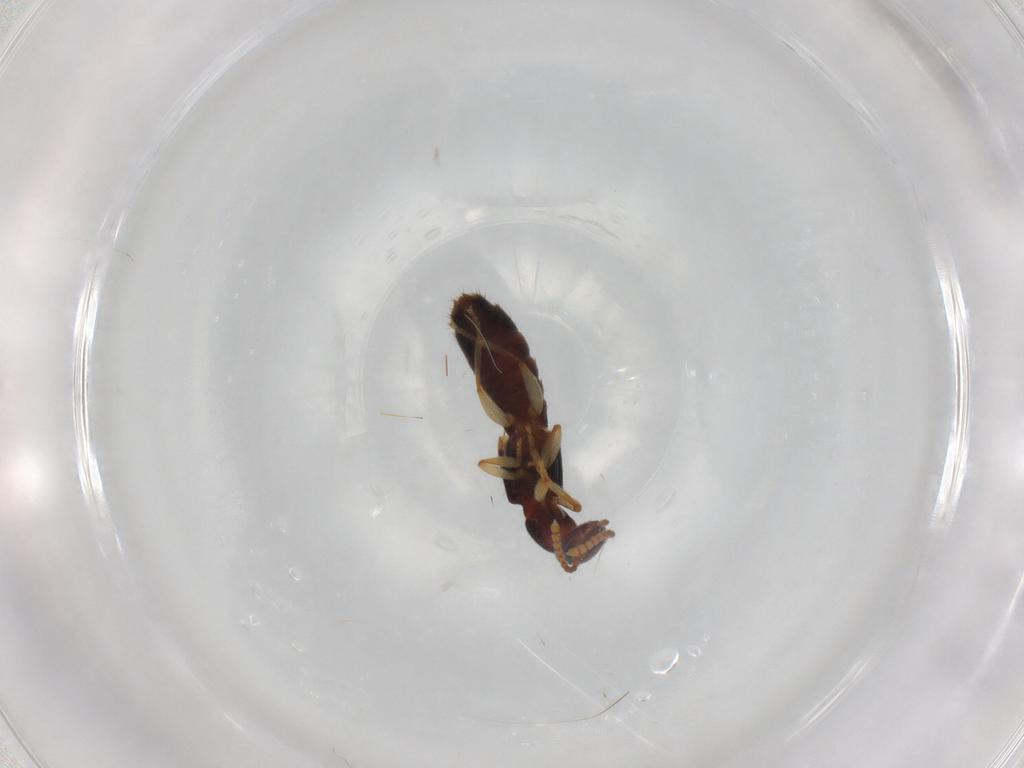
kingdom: Animalia
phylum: Arthropoda
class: Insecta
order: Coleoptera
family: Staphylinidae
